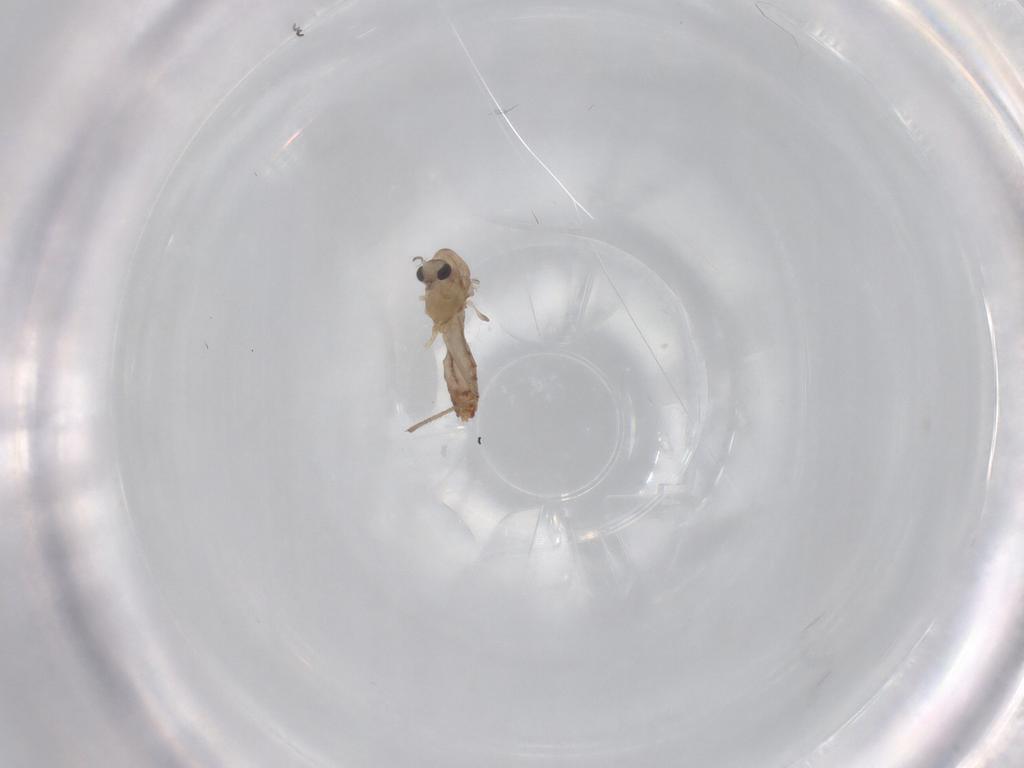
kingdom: Animalia
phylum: Arthropoda
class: Insecta
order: Diptera
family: Chironomidae
